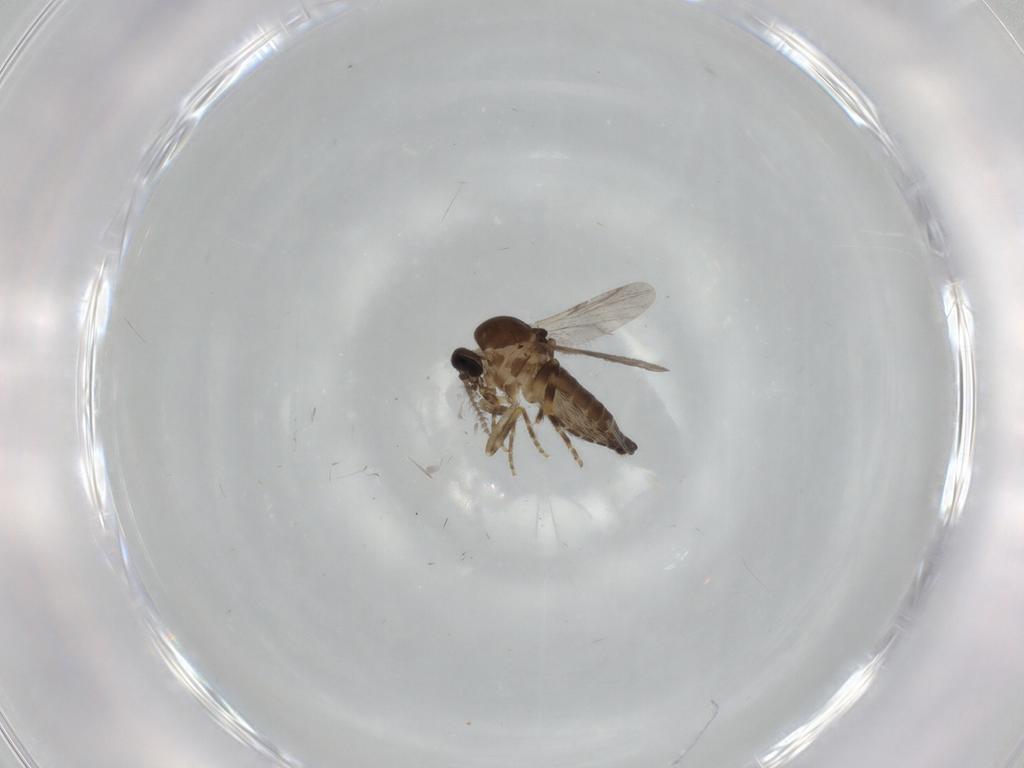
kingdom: Animalia
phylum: Arthropoda
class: Insecta
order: Diptera
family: Ceratopogonidae
